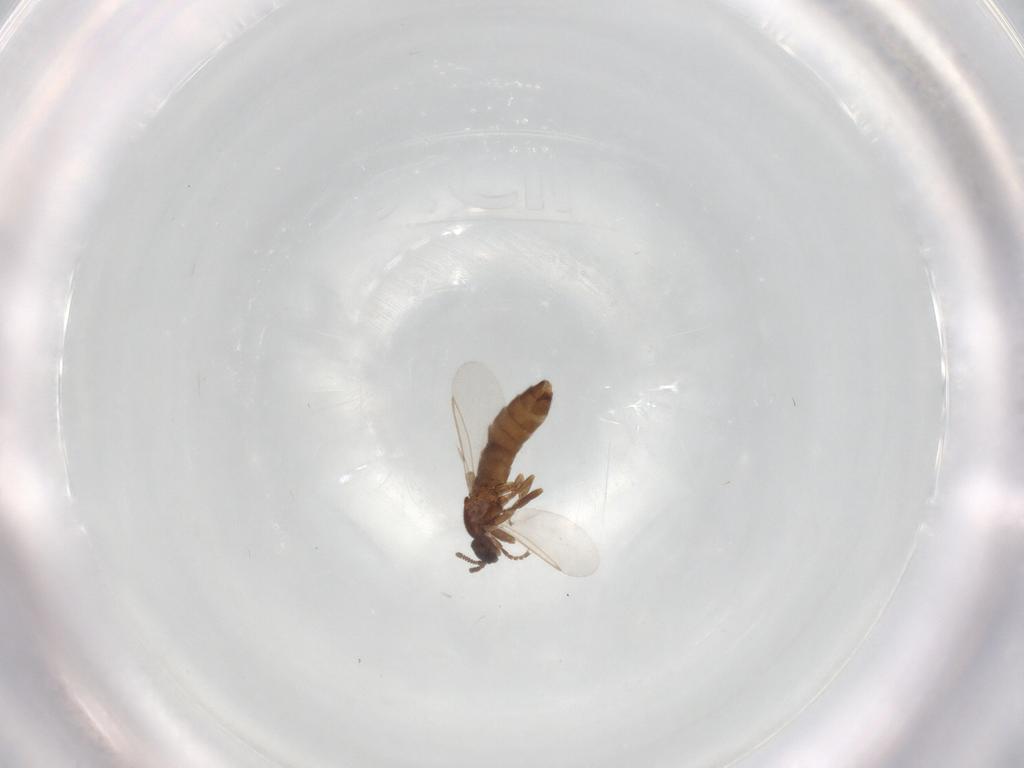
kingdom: Animalia
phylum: Arthropoda
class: Insecta
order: Diptera
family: Scatopsidae
